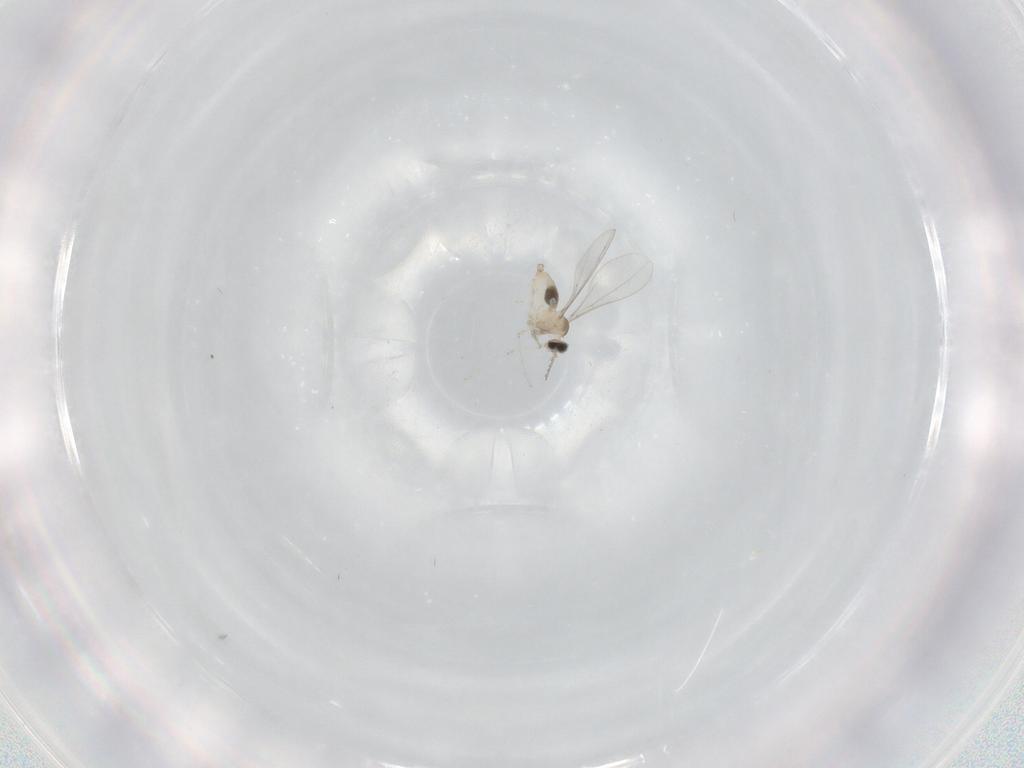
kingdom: Animalia
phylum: Arthropoda
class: Insecta
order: Diptera
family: Cecidomyiidae
